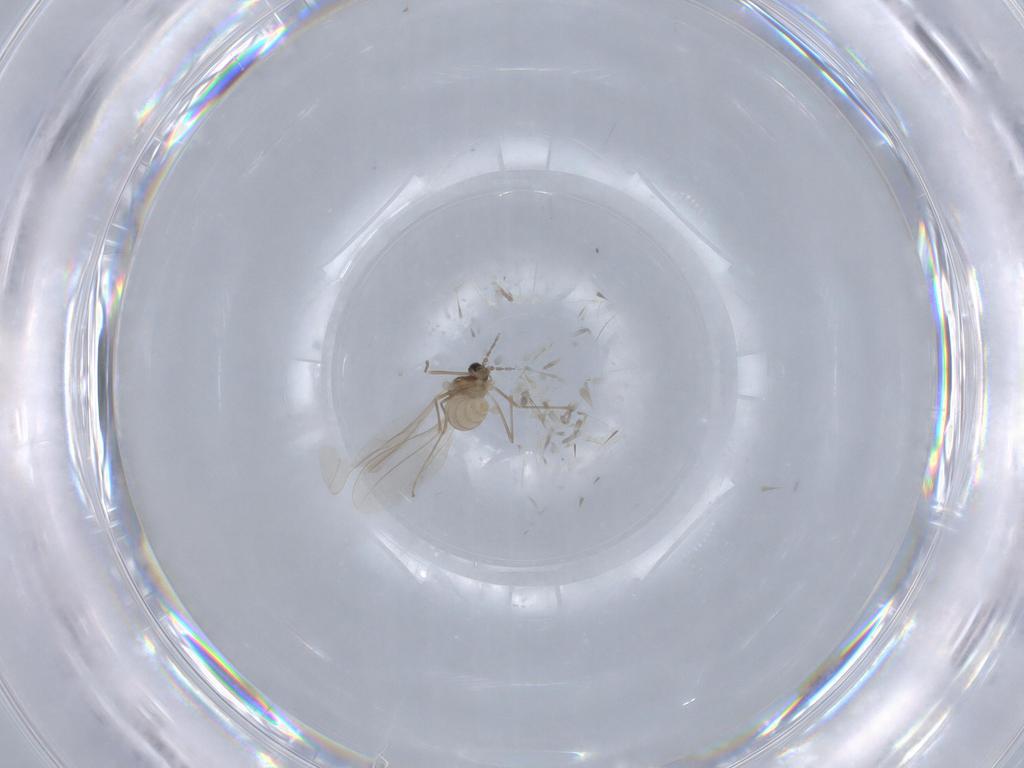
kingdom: Animalia
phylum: Arthropoda
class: Insecta
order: Diptera
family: Cecidomyiidae
